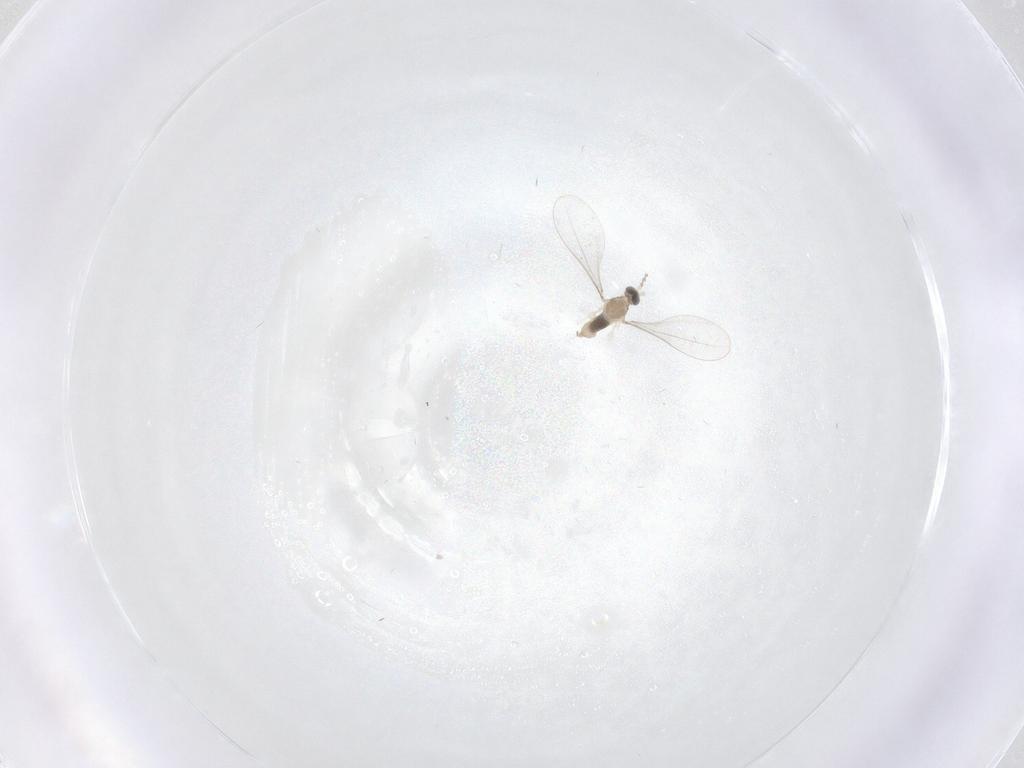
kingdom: Animalia
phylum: Arthropoda
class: Insecta
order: Diptera
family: Cecidomyiidae
